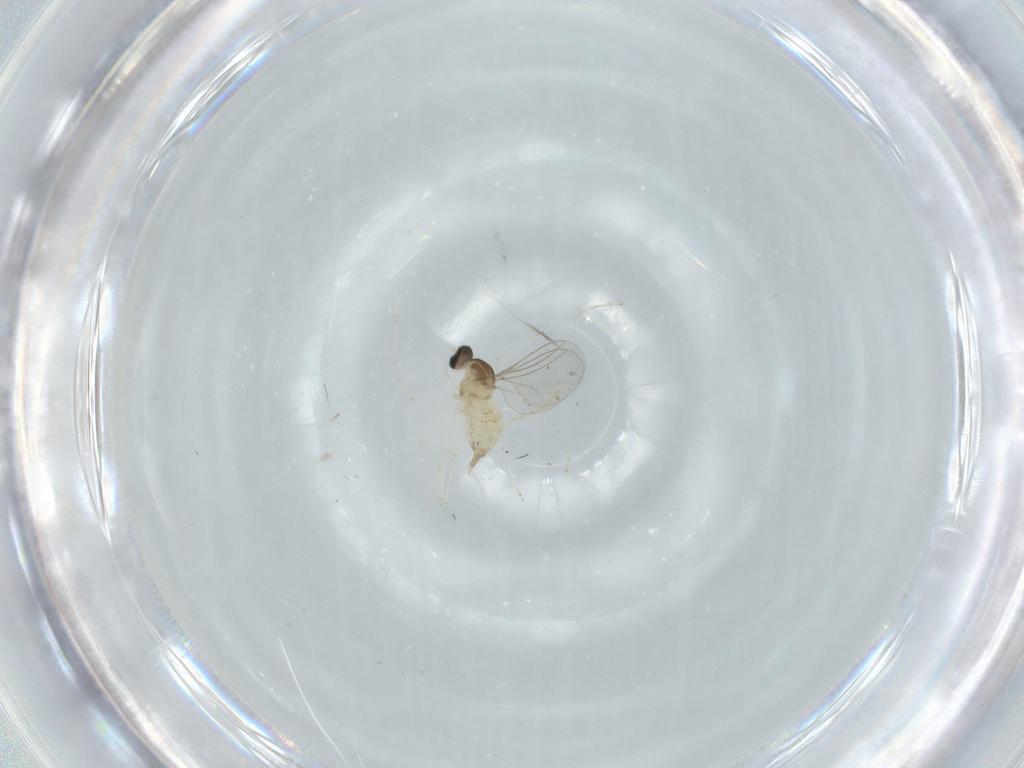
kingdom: Animalia
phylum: Arthropoda
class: Insecta
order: Diptera
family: Cecidomyiidae
